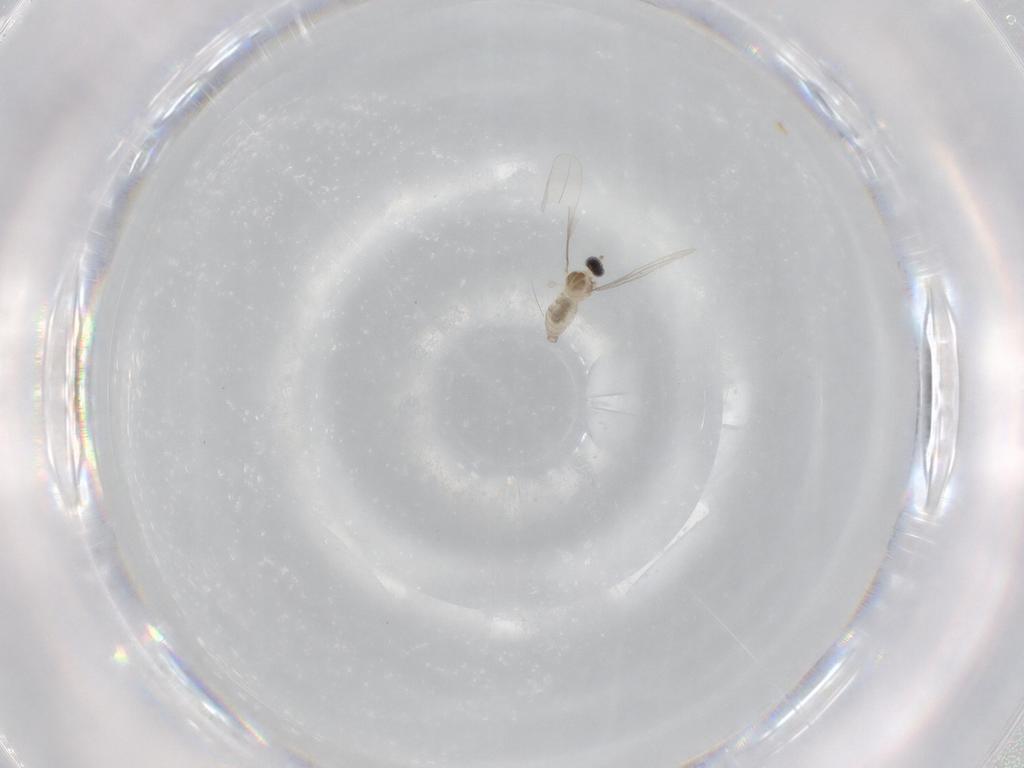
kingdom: Animalia
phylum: Arthropoda
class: Insecta
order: Diptera
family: Cecidomyiidae
